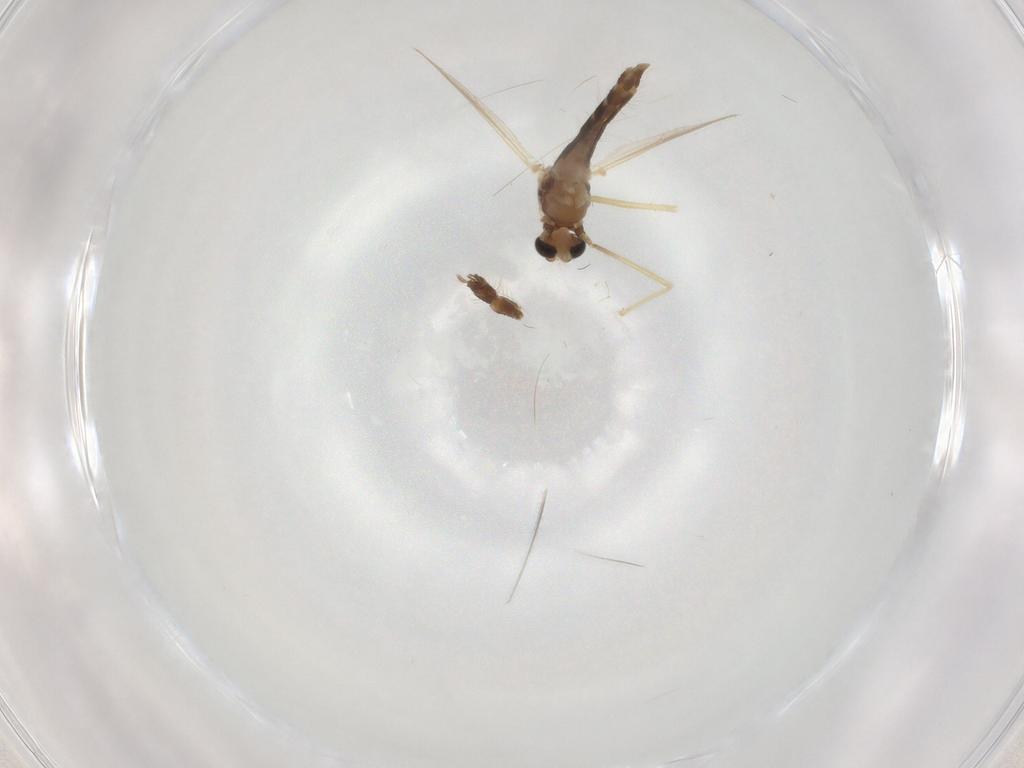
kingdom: Animalia
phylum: Arthropoda
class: Insecta
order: Diptera
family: Chironomidae
